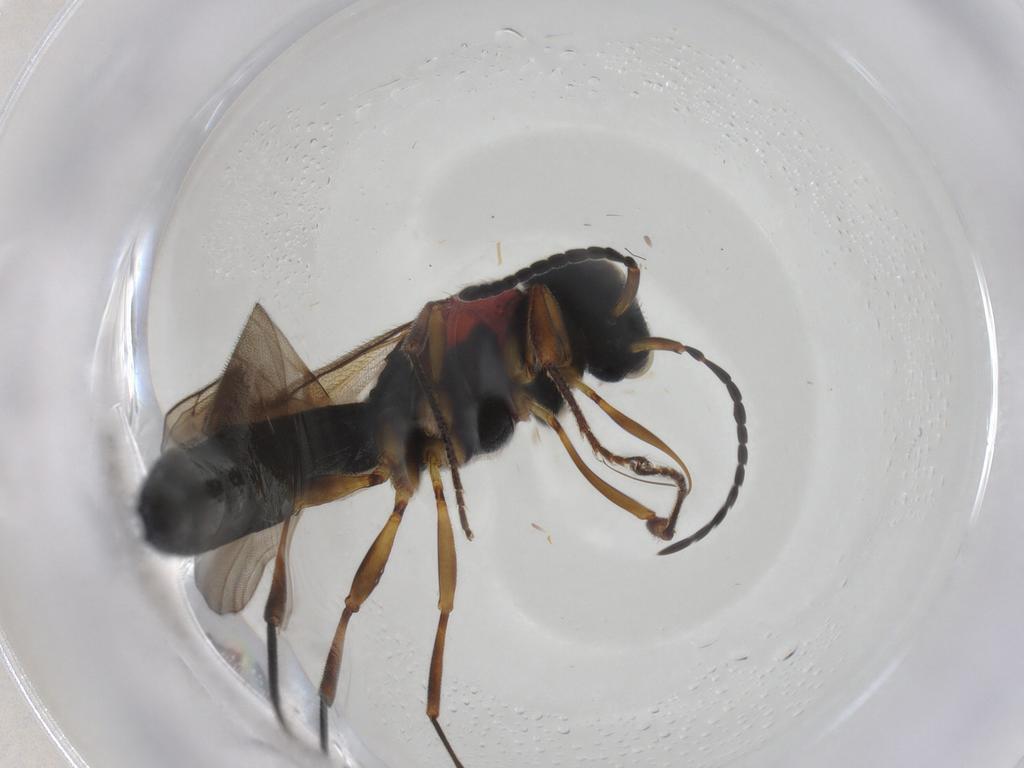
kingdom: Animalia
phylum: Arthropoda
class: Insecta
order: Hymenoptera
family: Scelionidae
